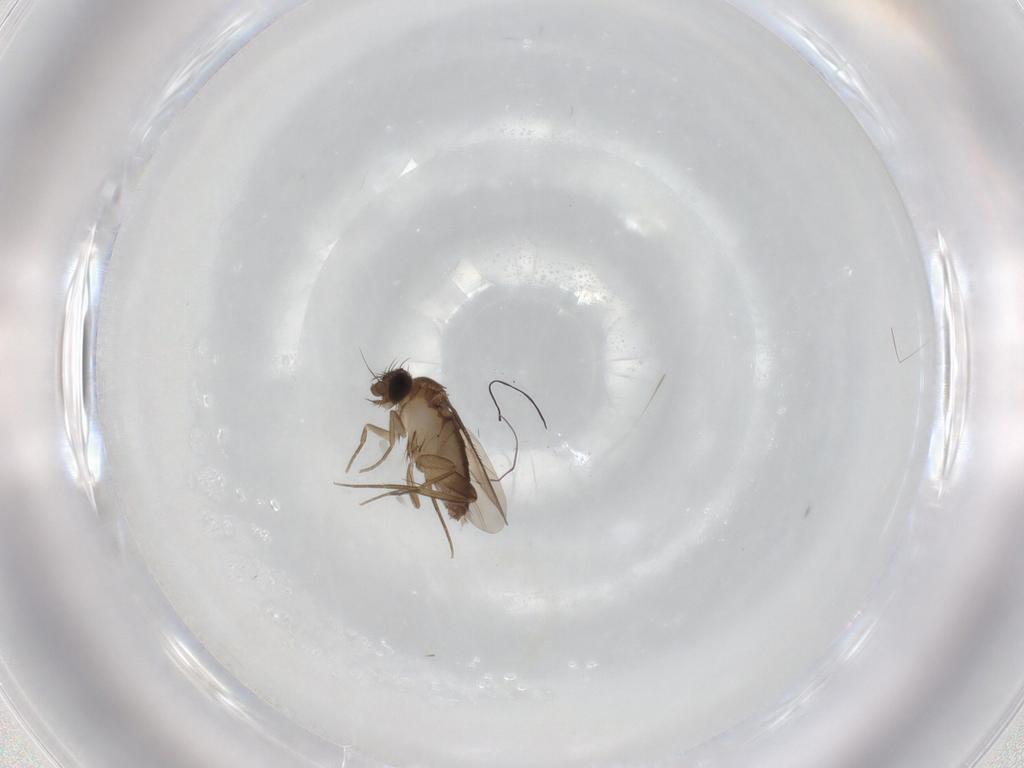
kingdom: Animalia
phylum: Arthropoda
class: Insecta
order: Diptera
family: Phoridae
